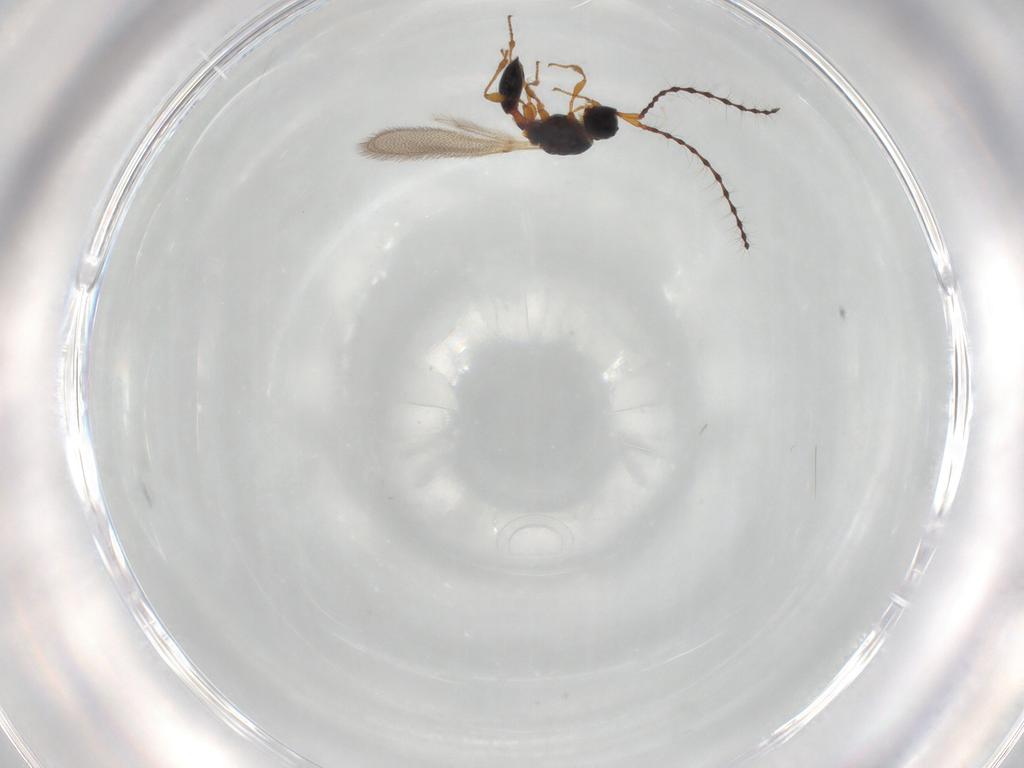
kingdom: Animalia
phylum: Arthropoda
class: Insecta
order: Hymenoptera
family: Diapriidae
